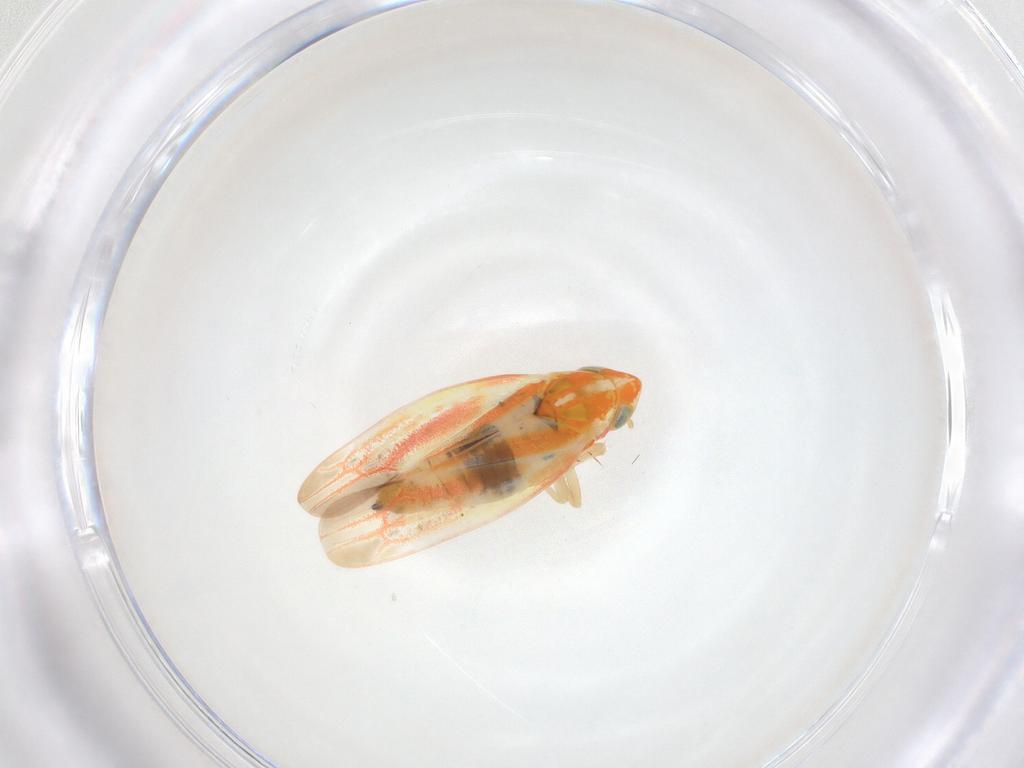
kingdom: Animalia
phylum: Arthropoda
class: Insecta
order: Hemiptera
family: Cicadellidae
